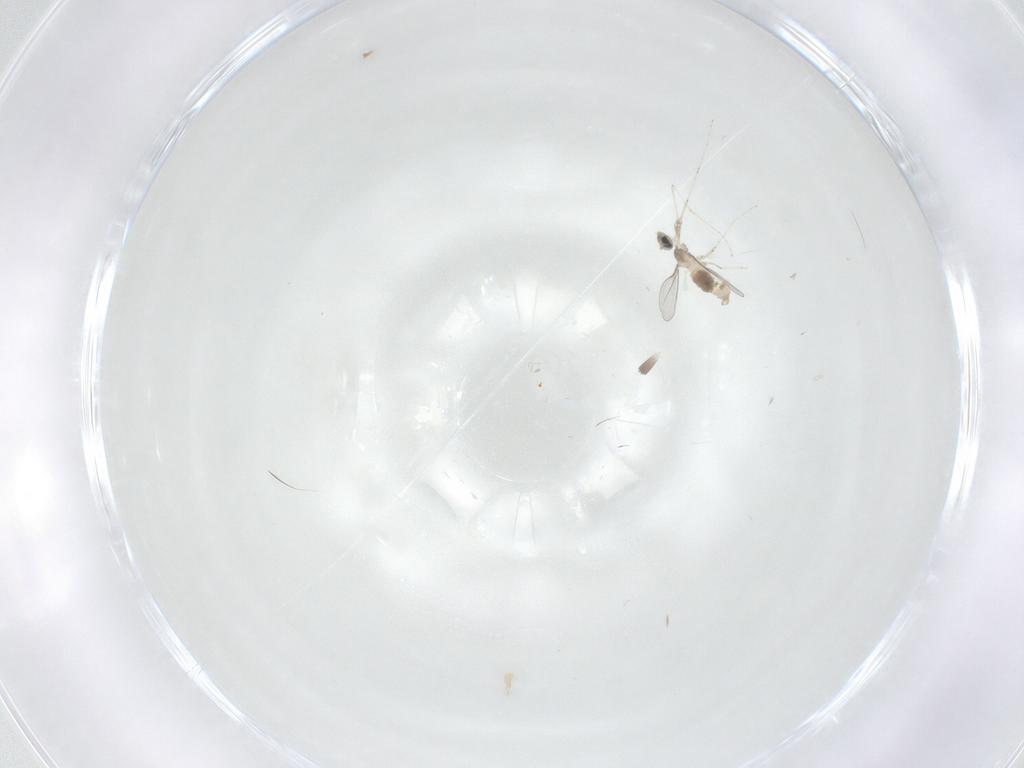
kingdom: Animalia
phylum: Arthropoda
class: Insecta
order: Diptera
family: Cecidomyiidae
